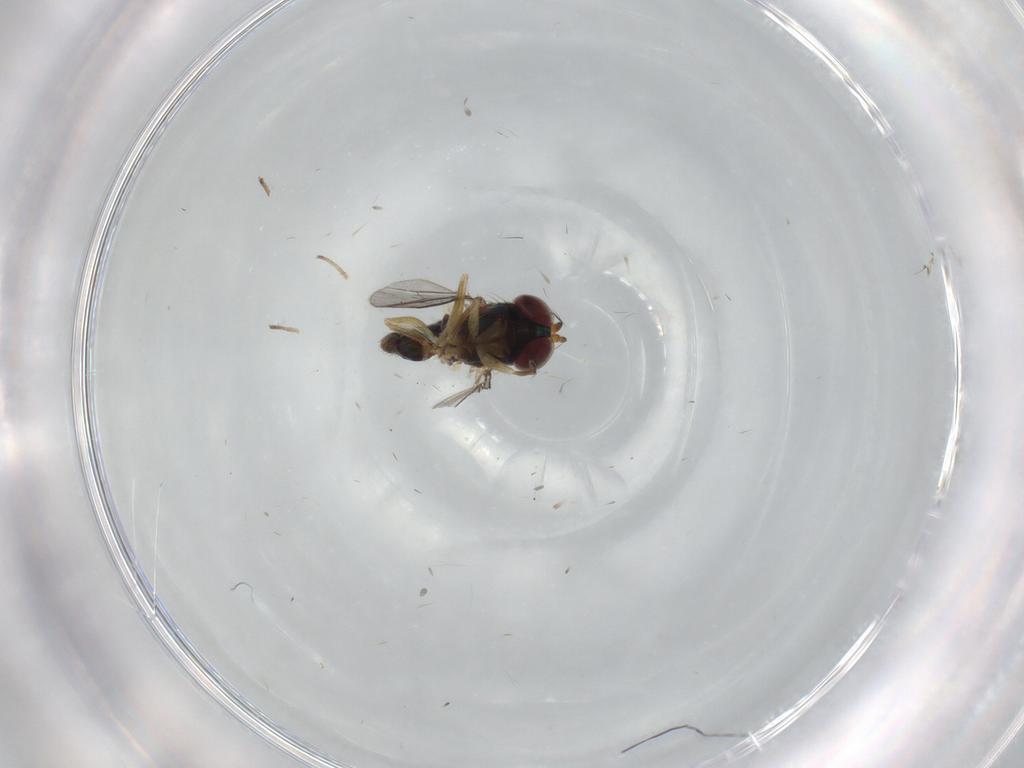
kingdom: Animalia
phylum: Arthropoda
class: Insecta
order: Diptera
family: Dolichopodidae
